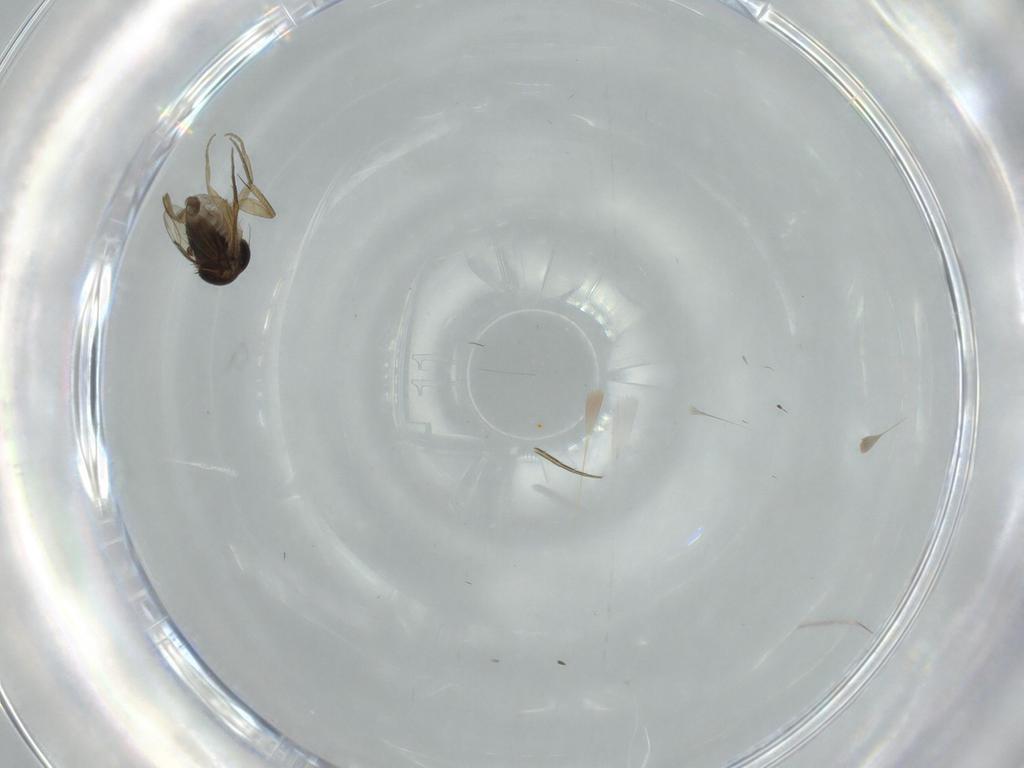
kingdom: Animalia
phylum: Arthropoda
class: Insecta
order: Diptera
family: Phoridae
